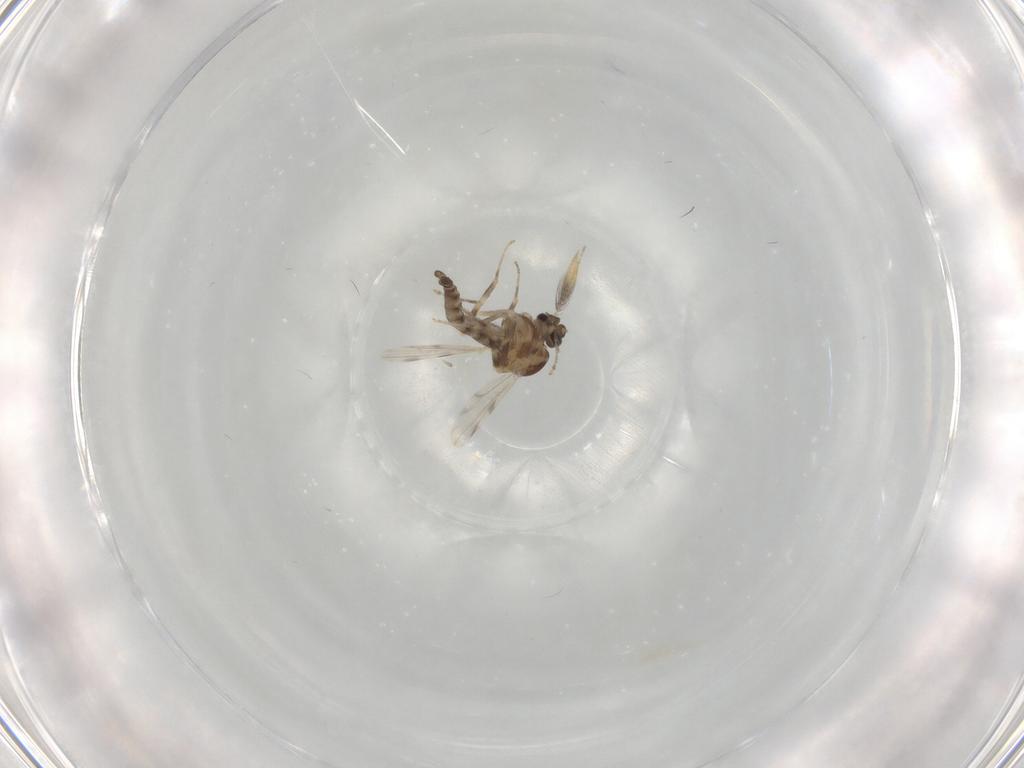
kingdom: Animalia
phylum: Arthropoda
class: Insecta
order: Diptera
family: Ceratopogonidae
